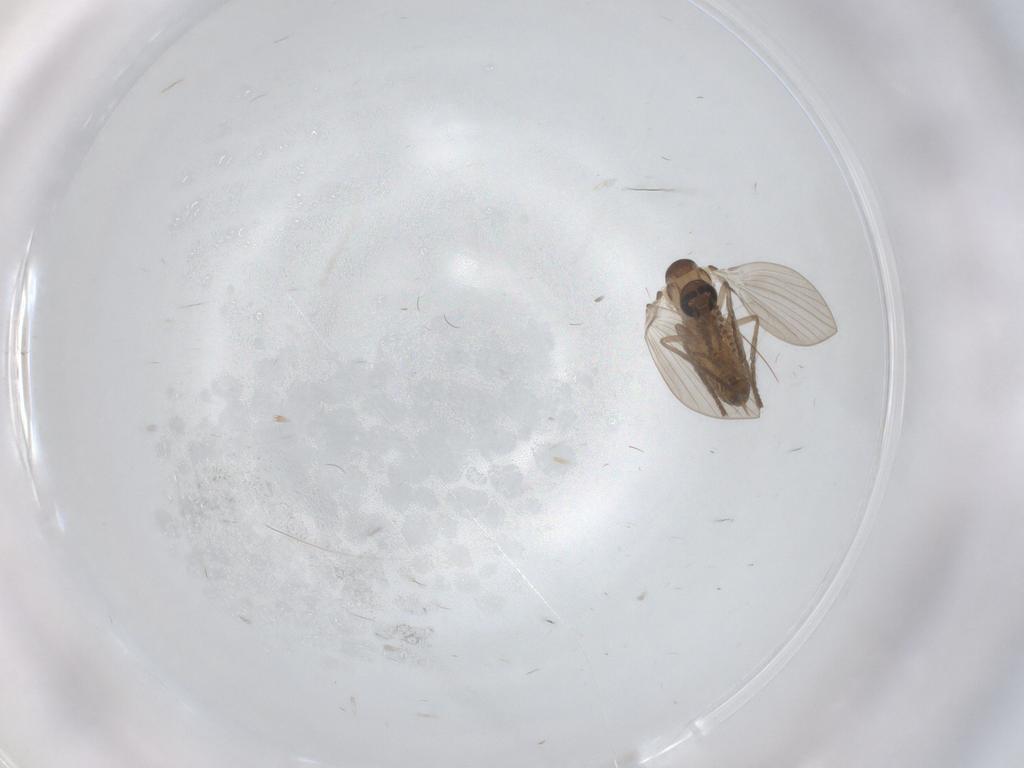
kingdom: Animalia
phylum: Arthropoda
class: Insecta
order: Diptera
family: Psychodidae
